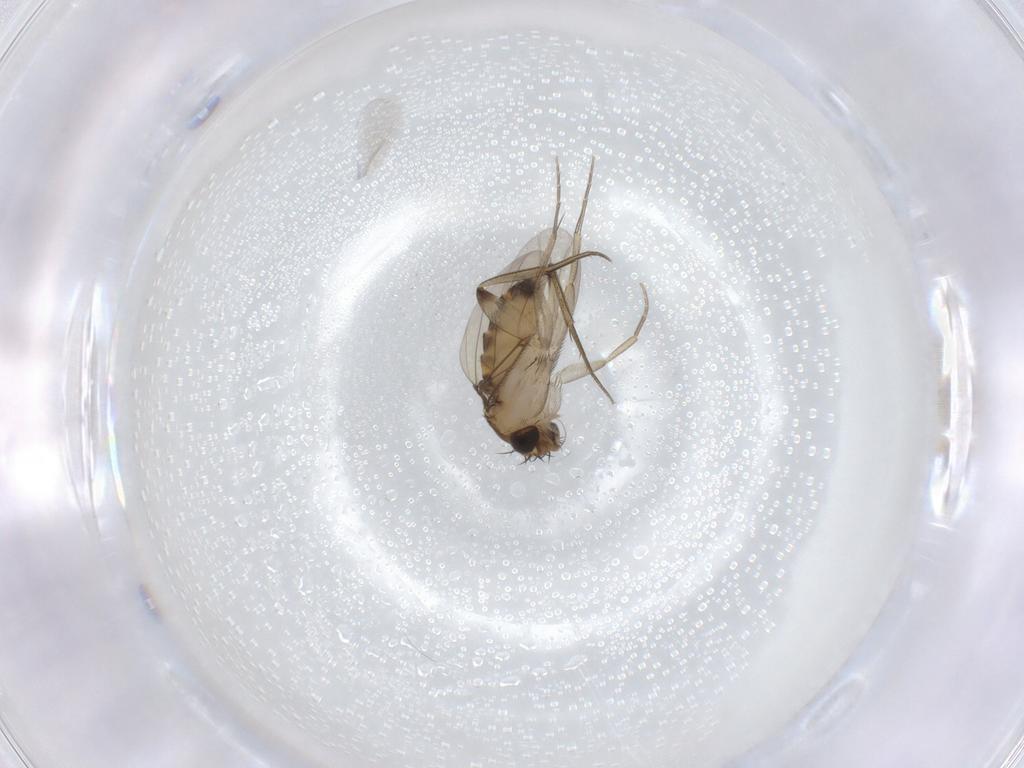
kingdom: Animalia
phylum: Arthropoda
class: Insecta
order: Diptera
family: Phoridae
